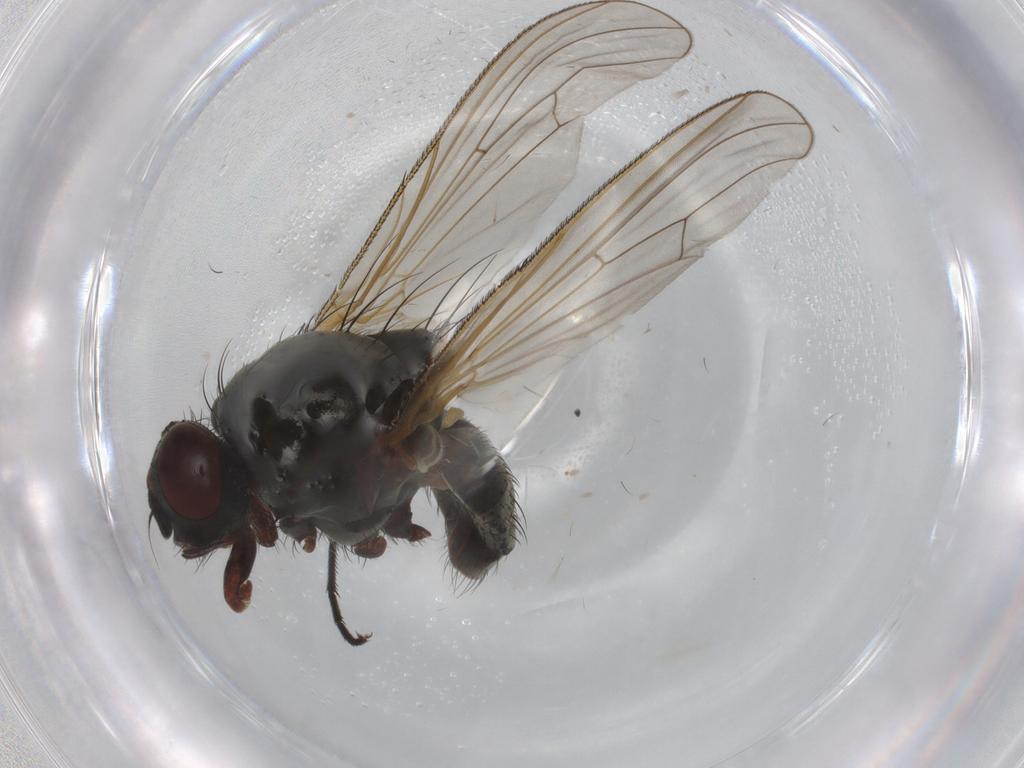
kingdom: Animalia
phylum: Arthropoda
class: Insecta
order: Diptera
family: Anthomyiidae
